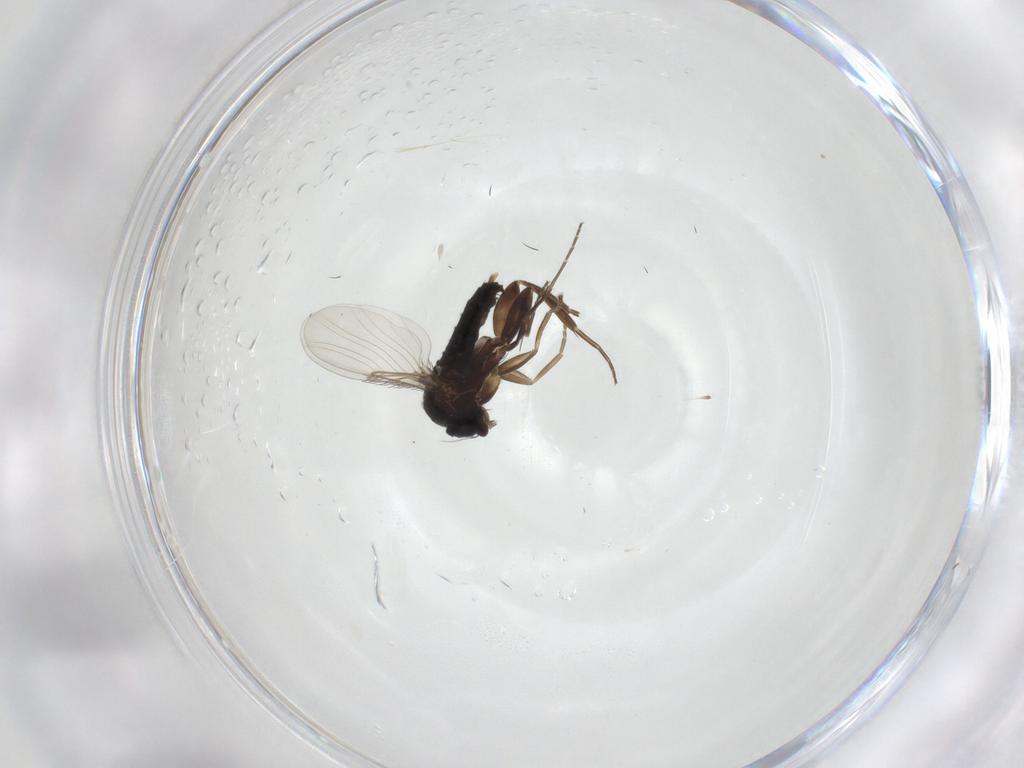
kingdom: Animalia
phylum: Arthropoda
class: Insecta
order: Diptera
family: Phoridae
